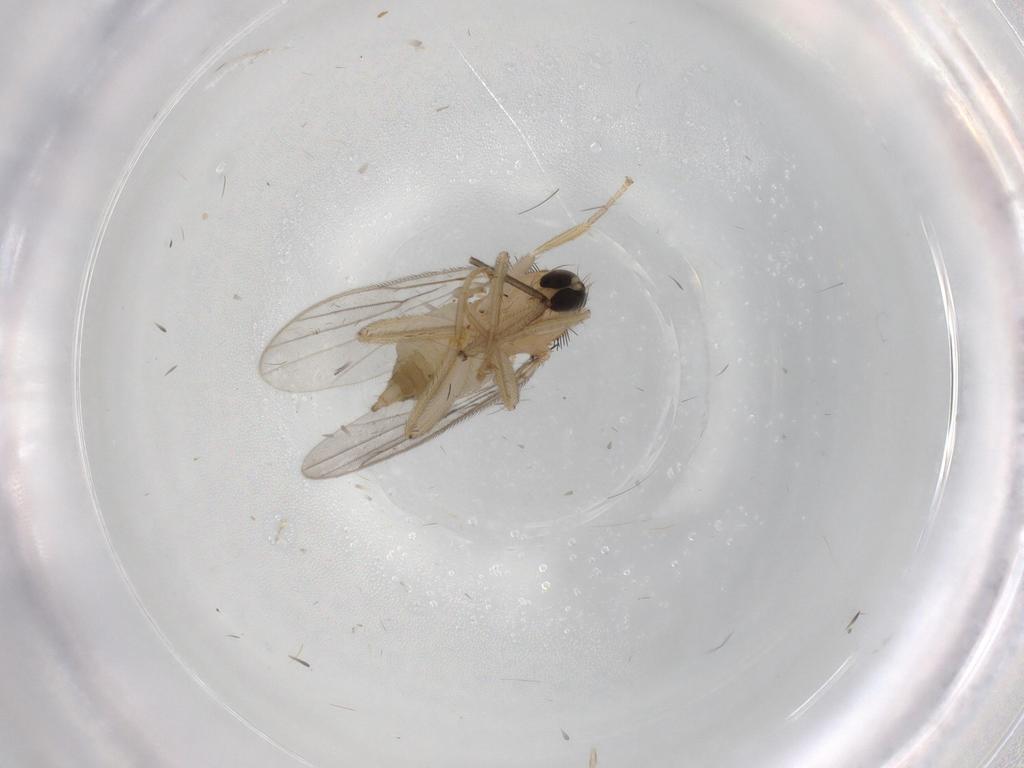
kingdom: Animalia
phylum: Arthropoda
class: Insecta
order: Diptera
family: Hybotidae
